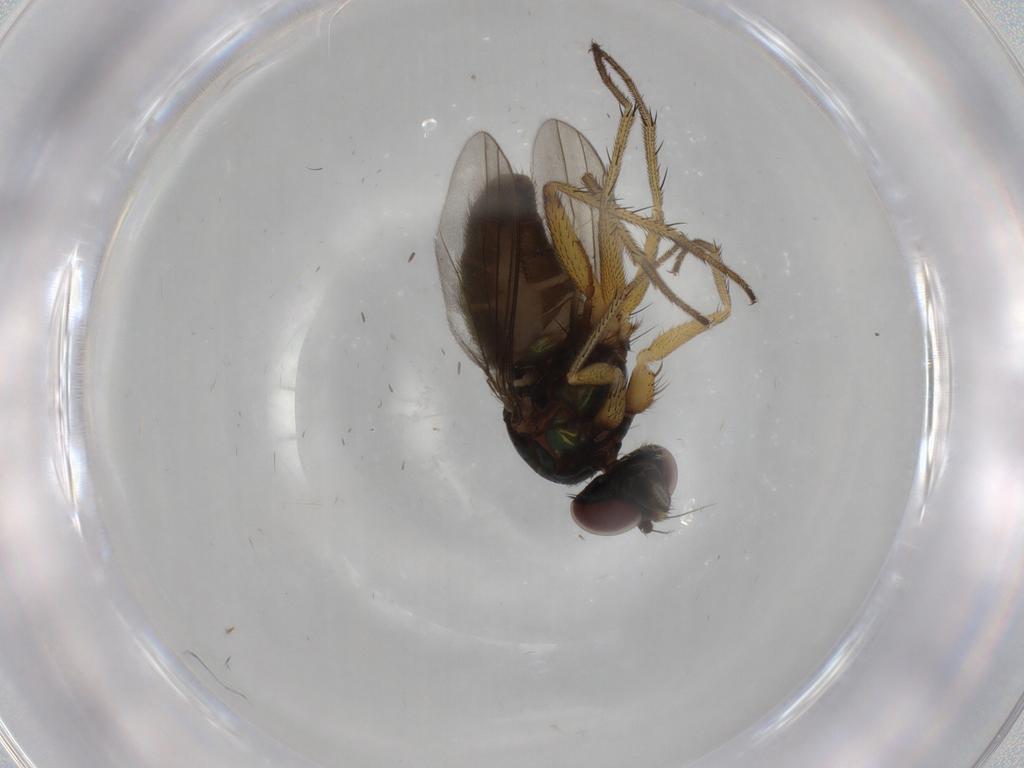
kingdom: Animalia
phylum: Arthropoda
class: Insecta
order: Diptera
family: Dolichopodidae
